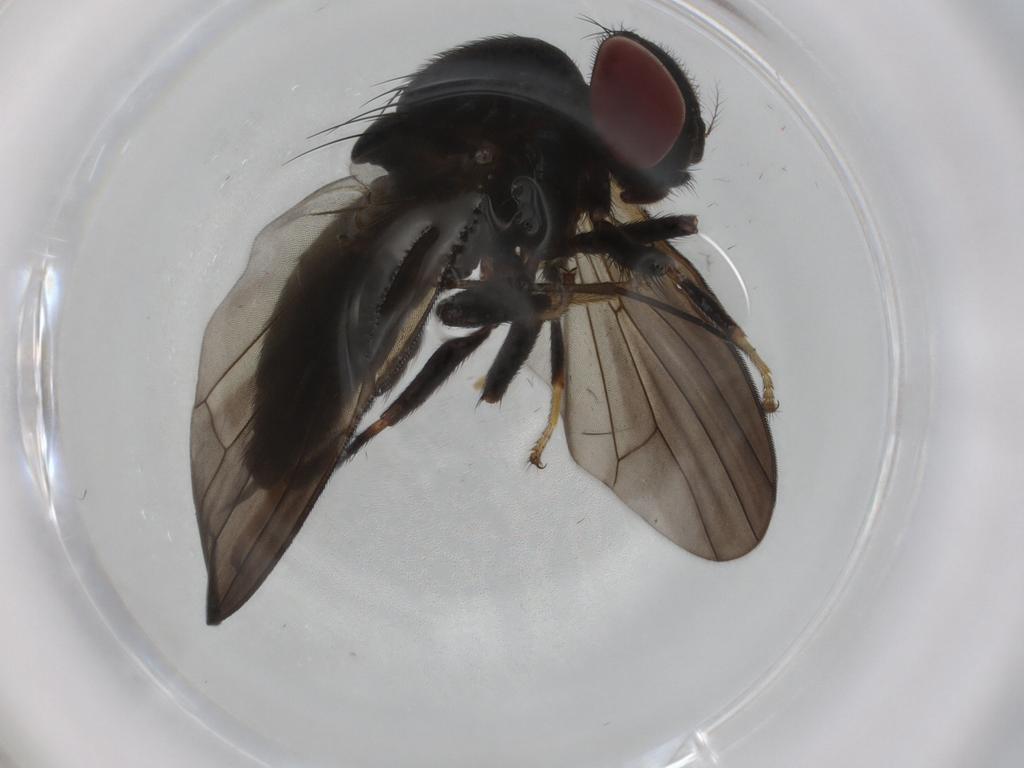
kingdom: Animalia
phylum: Arthropoda
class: Insecta
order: Diptera
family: Lonchaeidae
